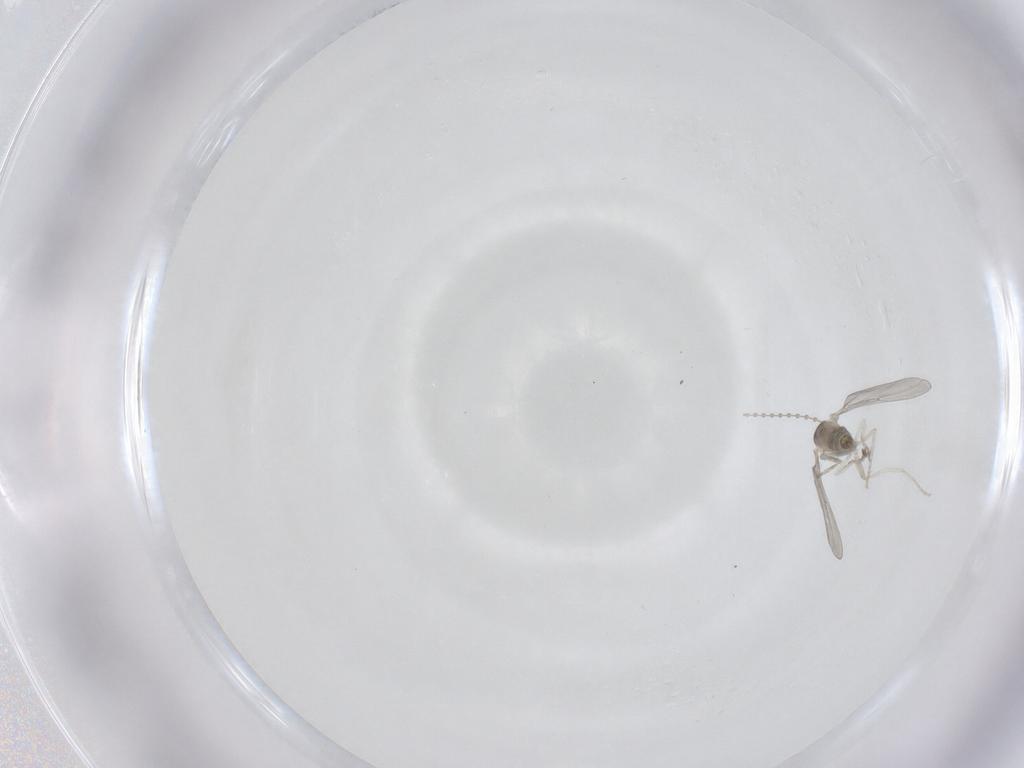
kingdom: Animalia
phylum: Arthropoda
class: Insecta
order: Diptera
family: Cecidomyiidae
